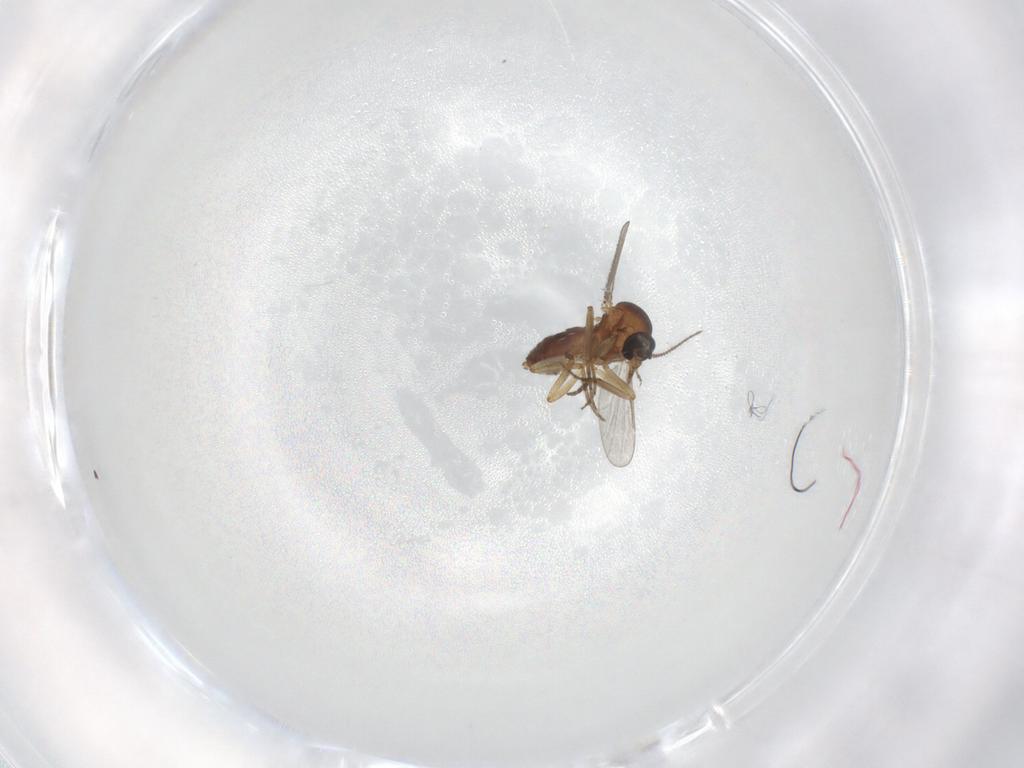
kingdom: Animalia
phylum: Arthropoda
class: Insecta
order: Diptera
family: Ceratopogonidae
